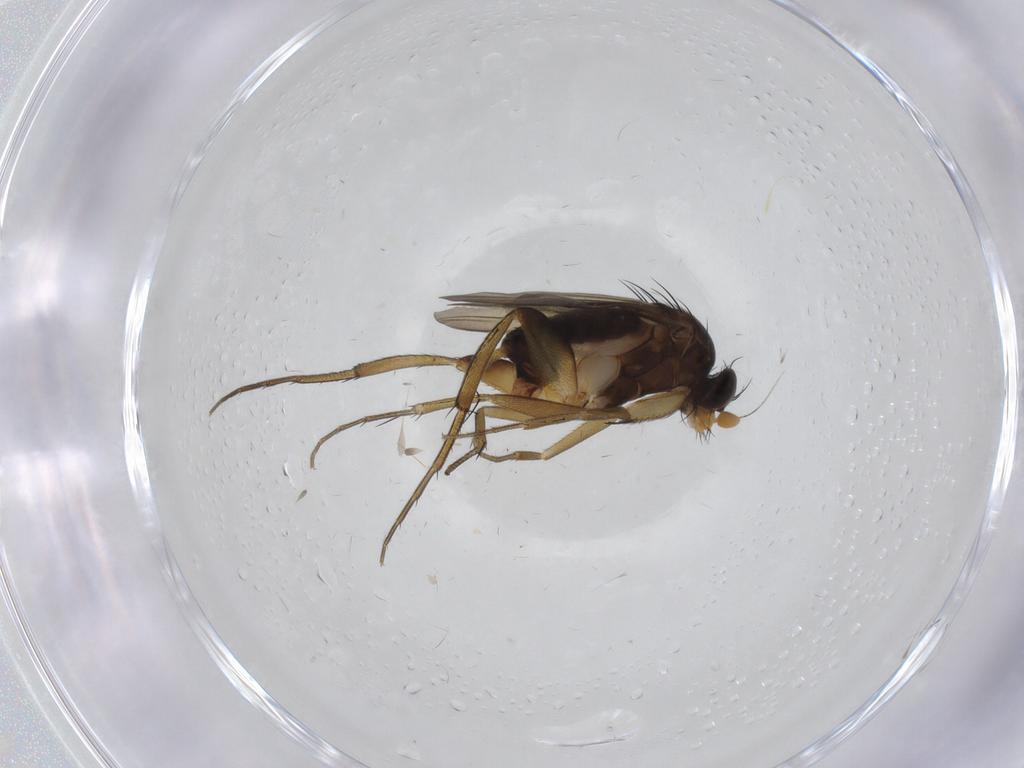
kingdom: Animalia
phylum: Arthropoda
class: Insecta
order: Diptera
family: Phoridae
